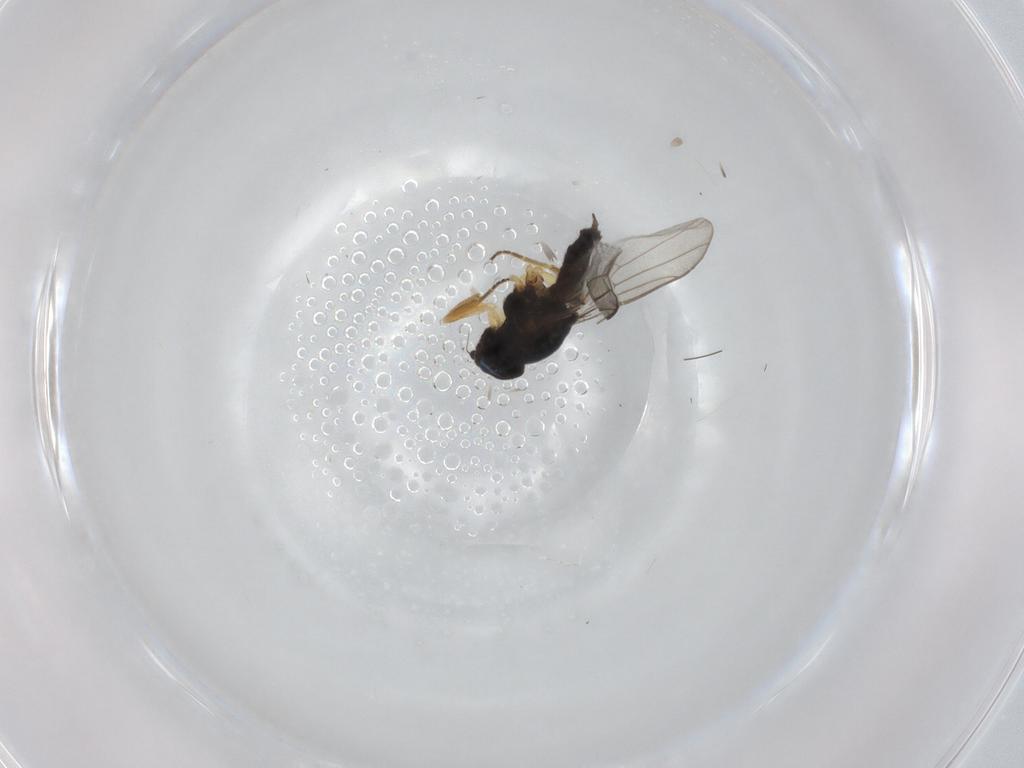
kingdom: Animalia
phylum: Arthropoda
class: Insecta
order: Diptera
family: Chloropidae
